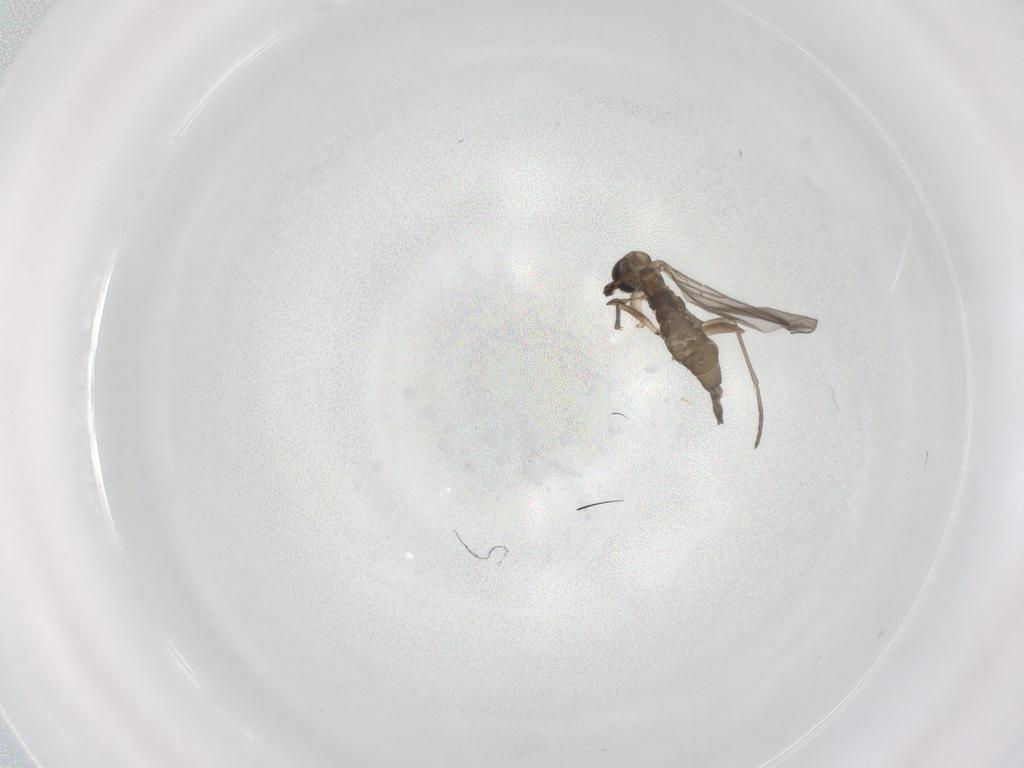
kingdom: Animalia
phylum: Arthropoda
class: Insecta
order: Diptera
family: Sciaridae
